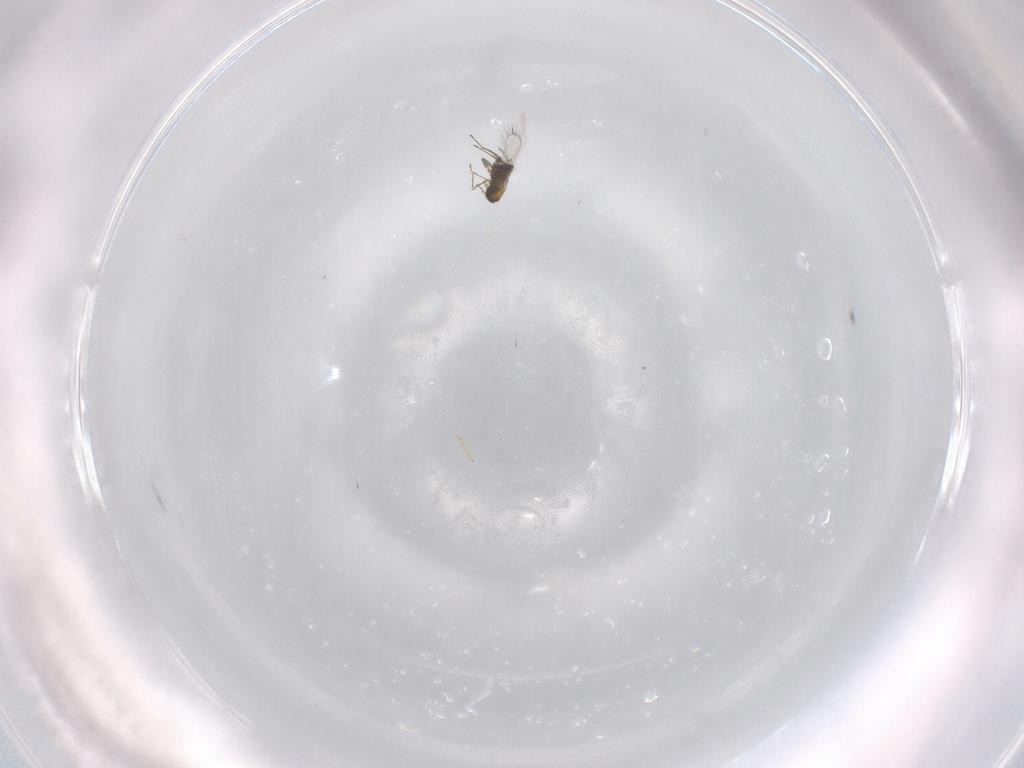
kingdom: Animalia
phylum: Arthropoda
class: Insecta
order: Hymenoptera
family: Trichogrammatidae
